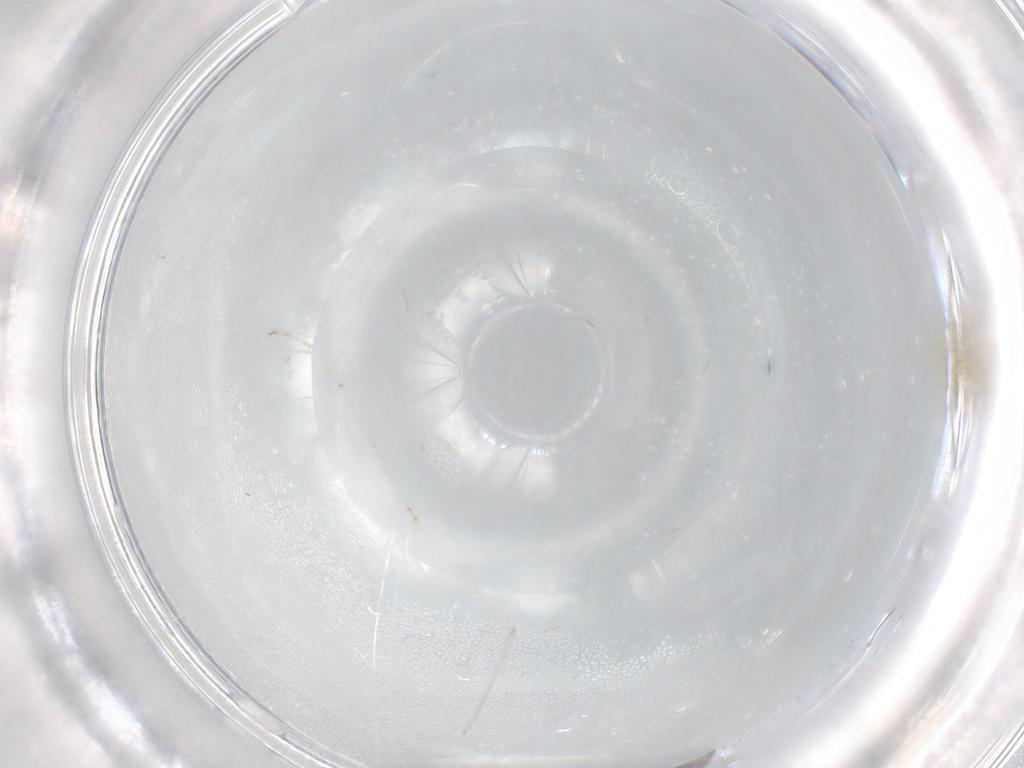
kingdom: Animalia
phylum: Arthropoda
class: Insecta
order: Diptera
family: Cecidomyiidae
